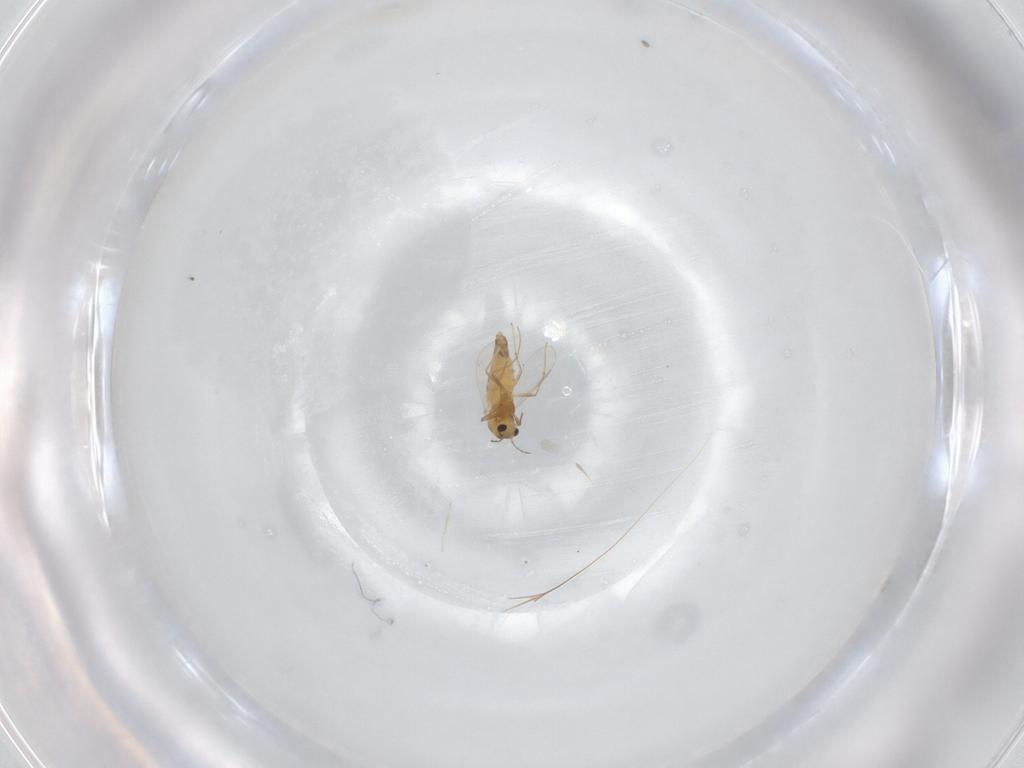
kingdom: Animalia
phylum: Arthropoda
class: Insecta
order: Diptera
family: Chironomidae
